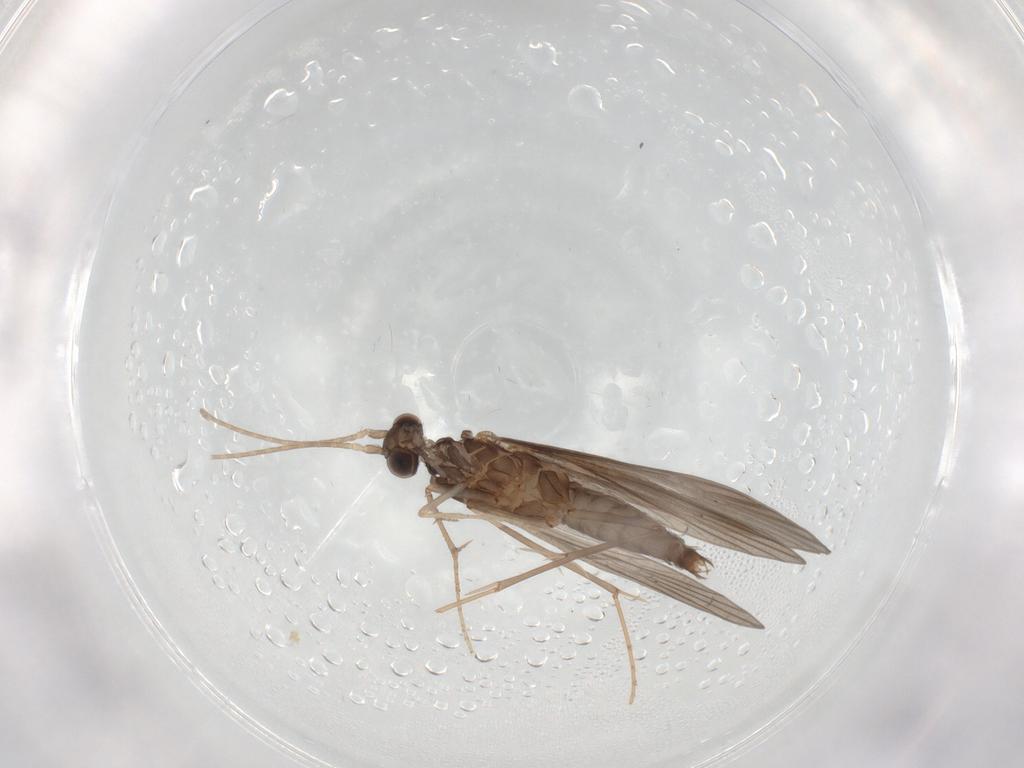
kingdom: Animalia
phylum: Arthropoda
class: Insecta
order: Trichoptera
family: Xiphocentronidae
